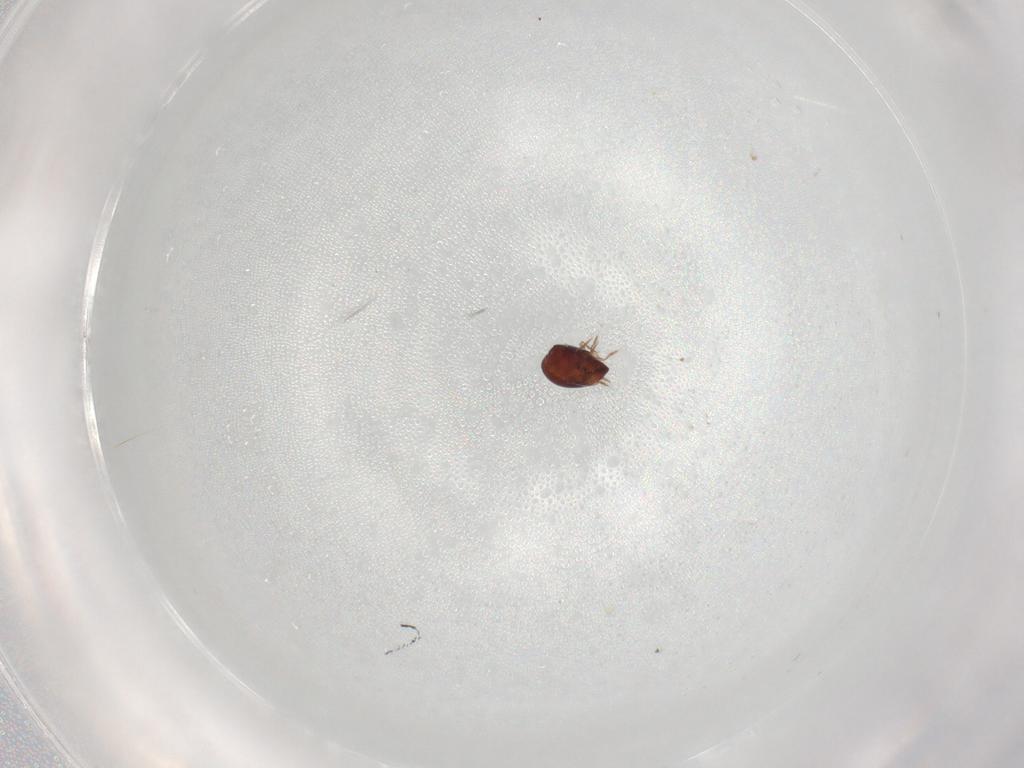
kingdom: Animalia
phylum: Arthropoda
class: Arachnida
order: Sarcoptiformes
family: Galumnidae
